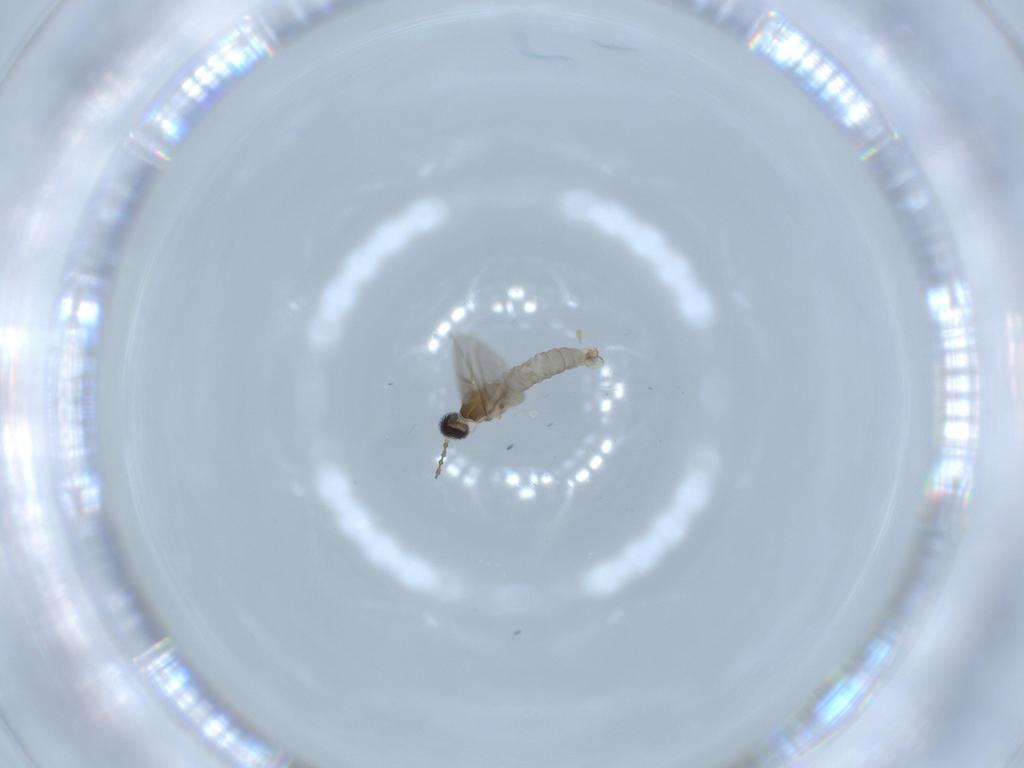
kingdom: Animalia
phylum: Arthropoda
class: Insecta
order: Diptera
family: Cecidomyiidae
